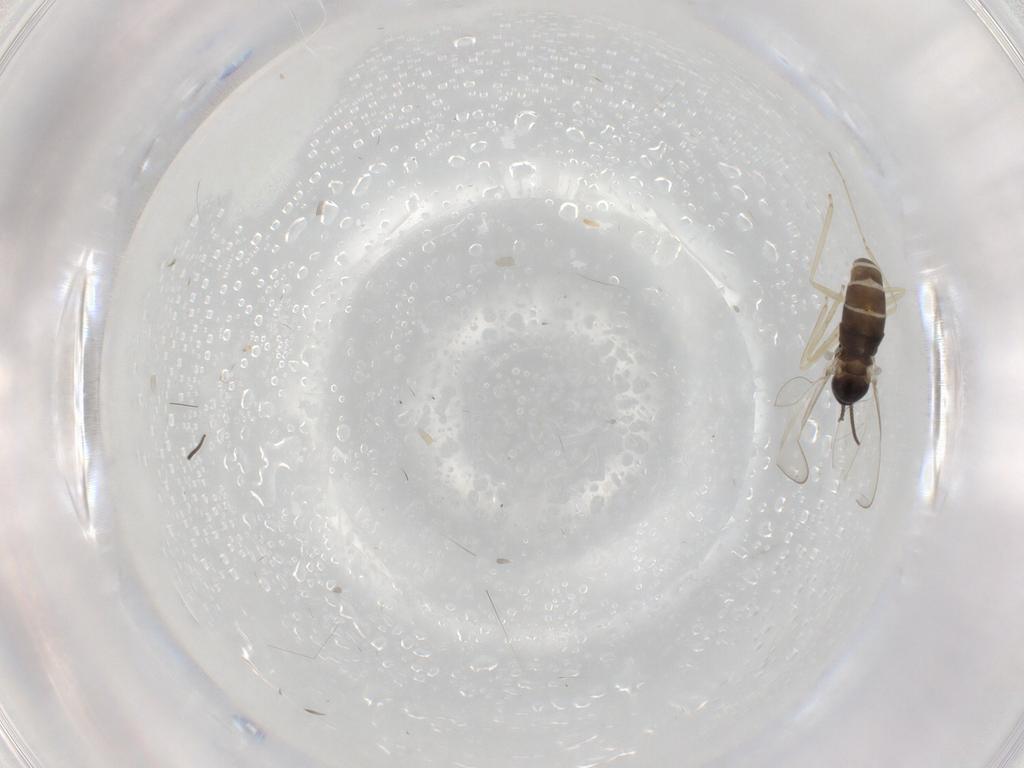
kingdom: Animalia
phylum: Arthropoda
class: Insecta
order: Diptera
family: Cecidomyiidae
